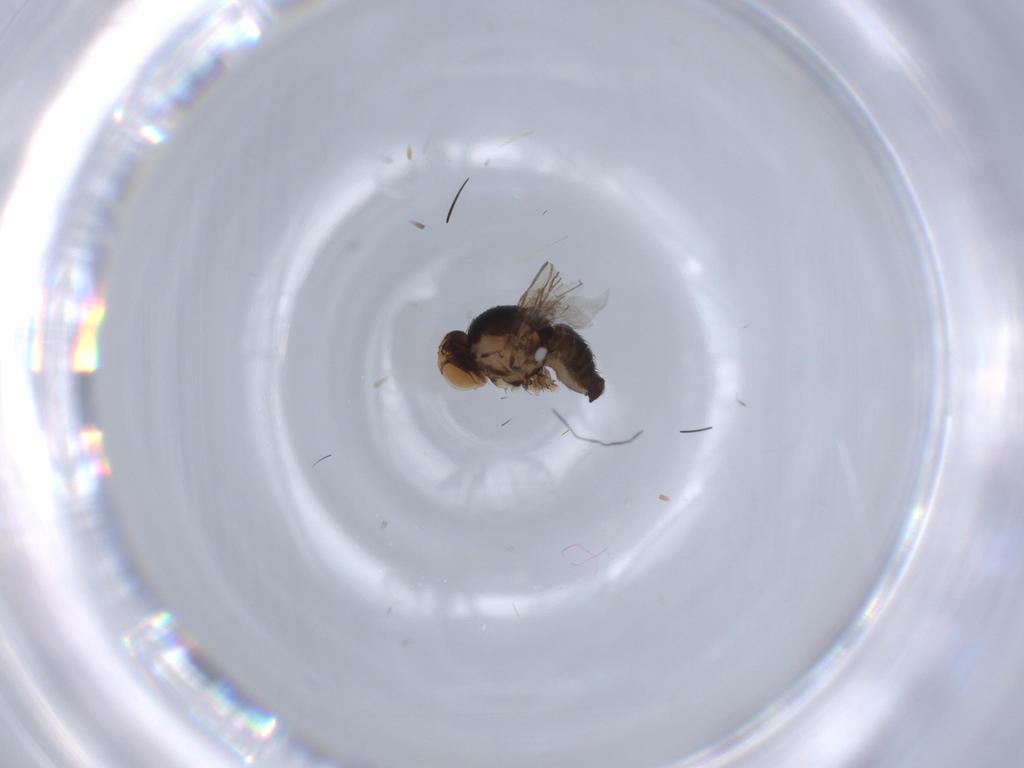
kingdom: Animalia
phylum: Arthropoda
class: Insecta
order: Diptera
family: Agromyzidae
